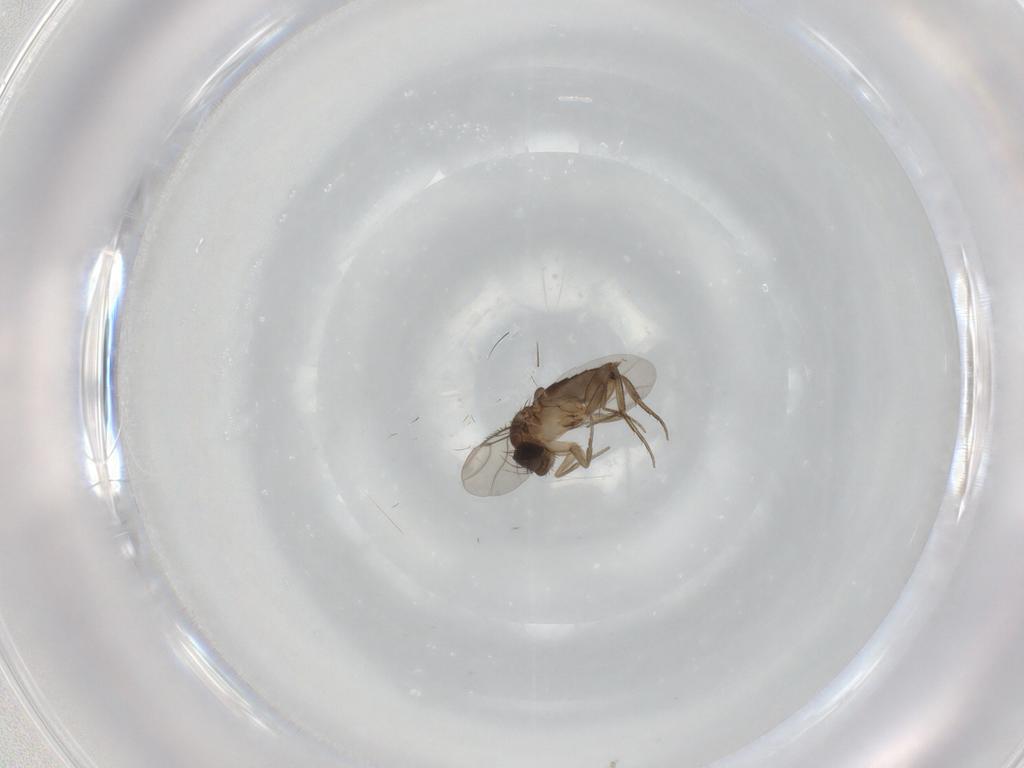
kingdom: Animalia
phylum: Arthropoda
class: Insecta
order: Diptera
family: Phoridae
